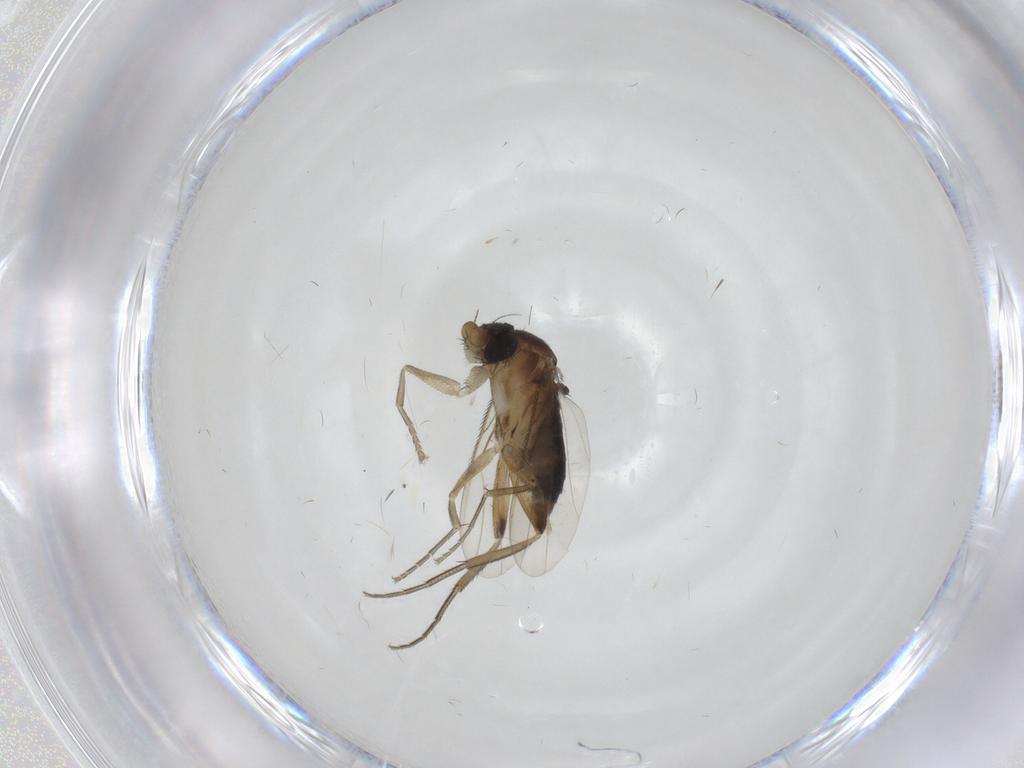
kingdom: Animalia
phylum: Arthropoda
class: Insecta
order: Diptera
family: Phoridae
